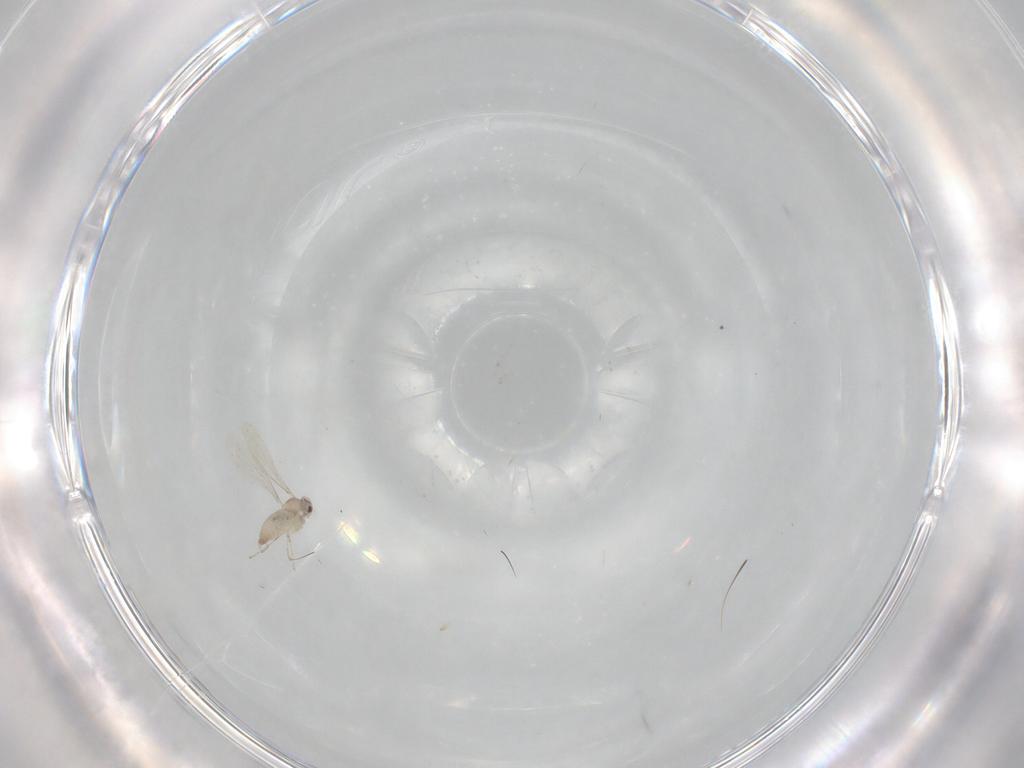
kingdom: Animalia
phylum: Arthropoda
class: Insecta
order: Diptera
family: Cecidomyiidae
